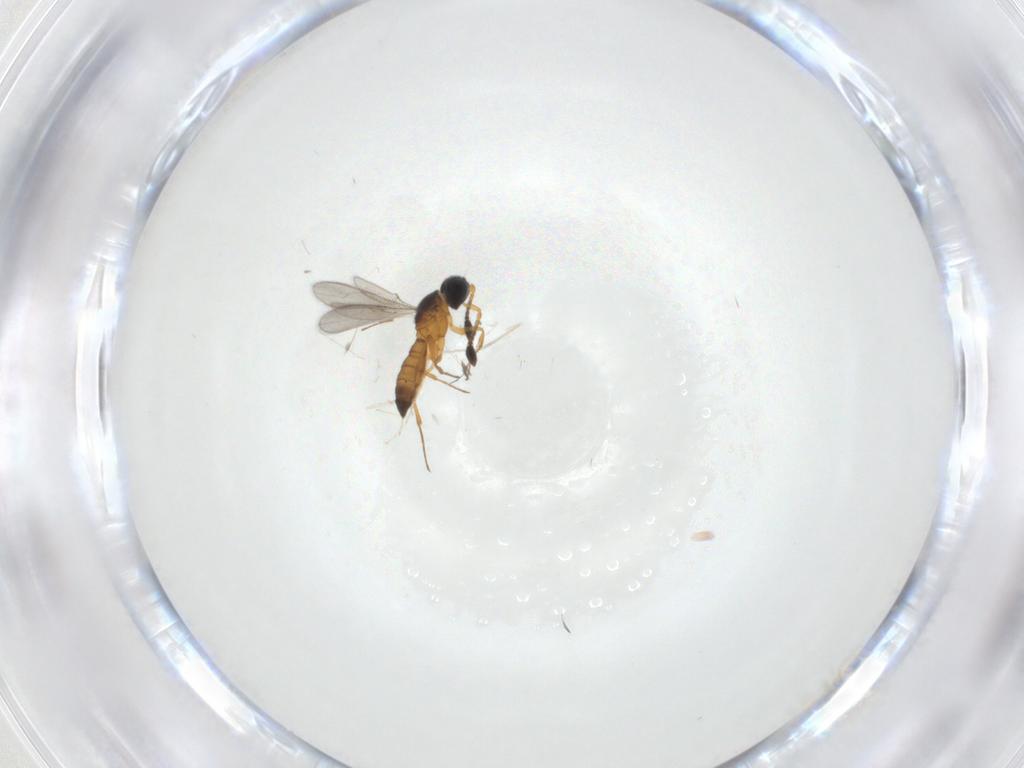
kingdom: Animalia
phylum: Arthropoda
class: Insecta
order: Hymenoptera
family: Scelionidae
